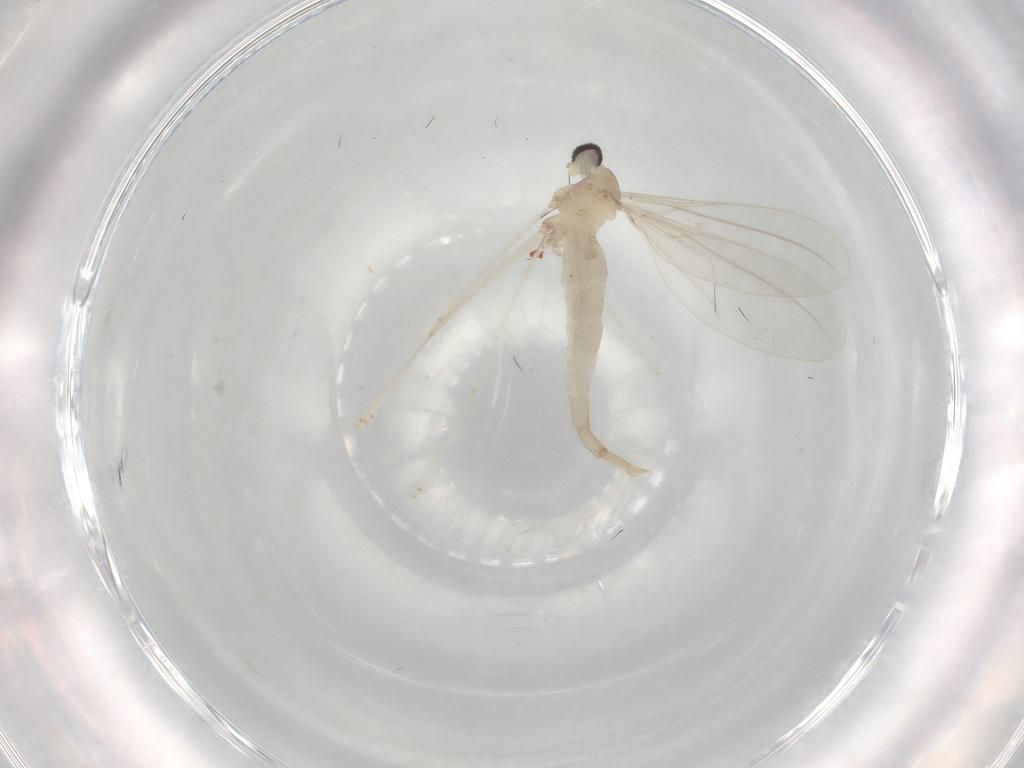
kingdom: Animalia
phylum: Arthropoda
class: Insecta
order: Diptera
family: Cecidomyiidae
